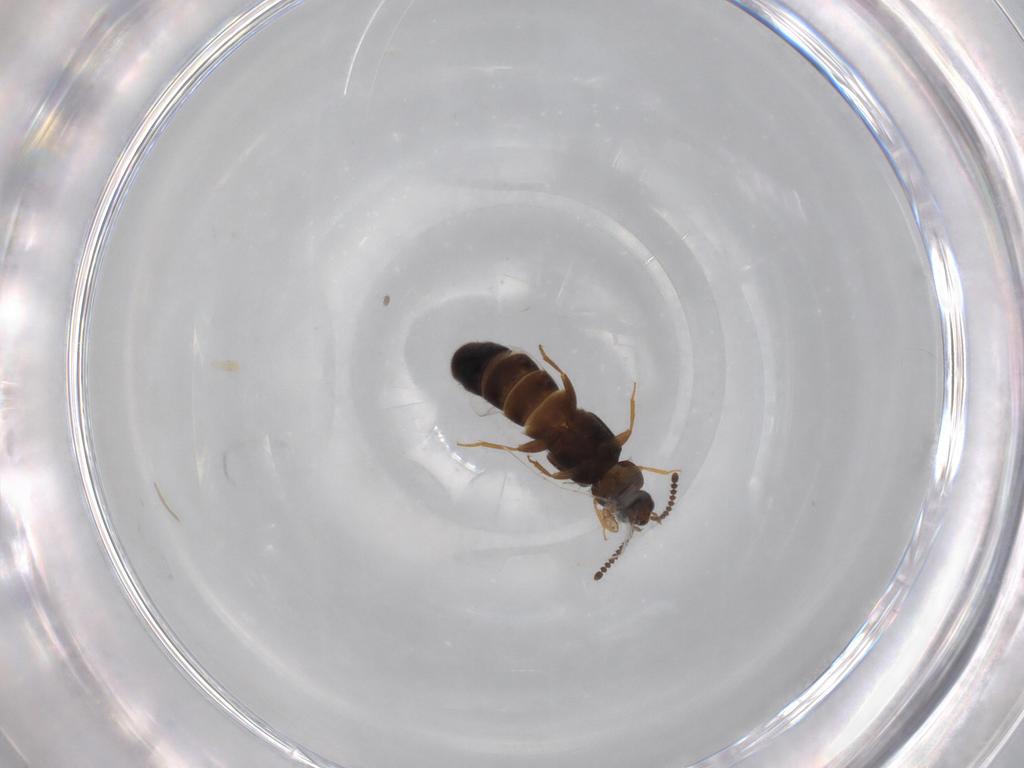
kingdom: Animalia
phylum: Arthropoda
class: Insecta
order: Coleoptera
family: Staphylinidae
